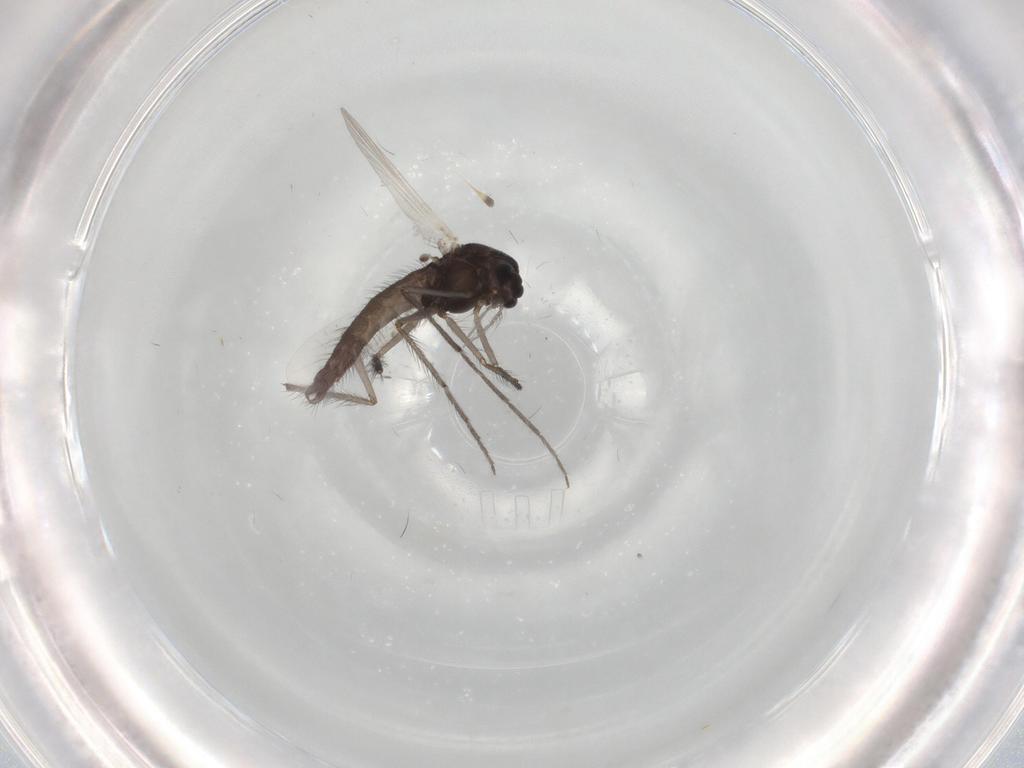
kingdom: Animalia
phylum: Arthropoda
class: Insecta
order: Diptera
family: Chironomidae
